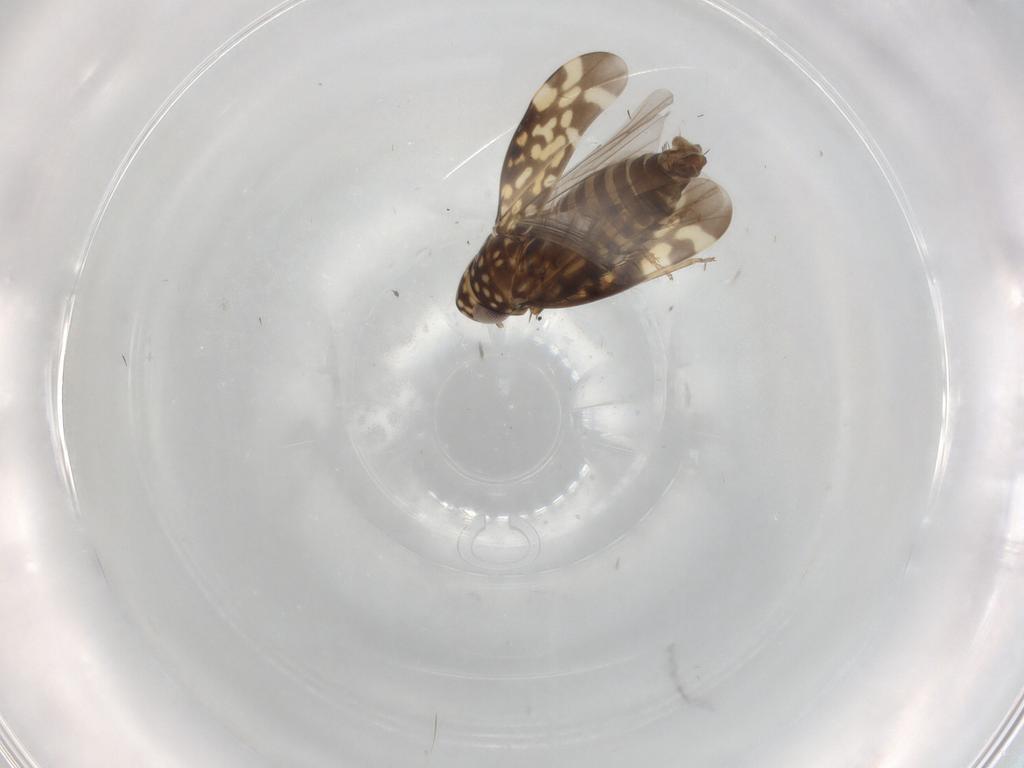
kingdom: Animalia
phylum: Arthropoda
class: Insecta
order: Hemiptera
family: Cicadellidae
